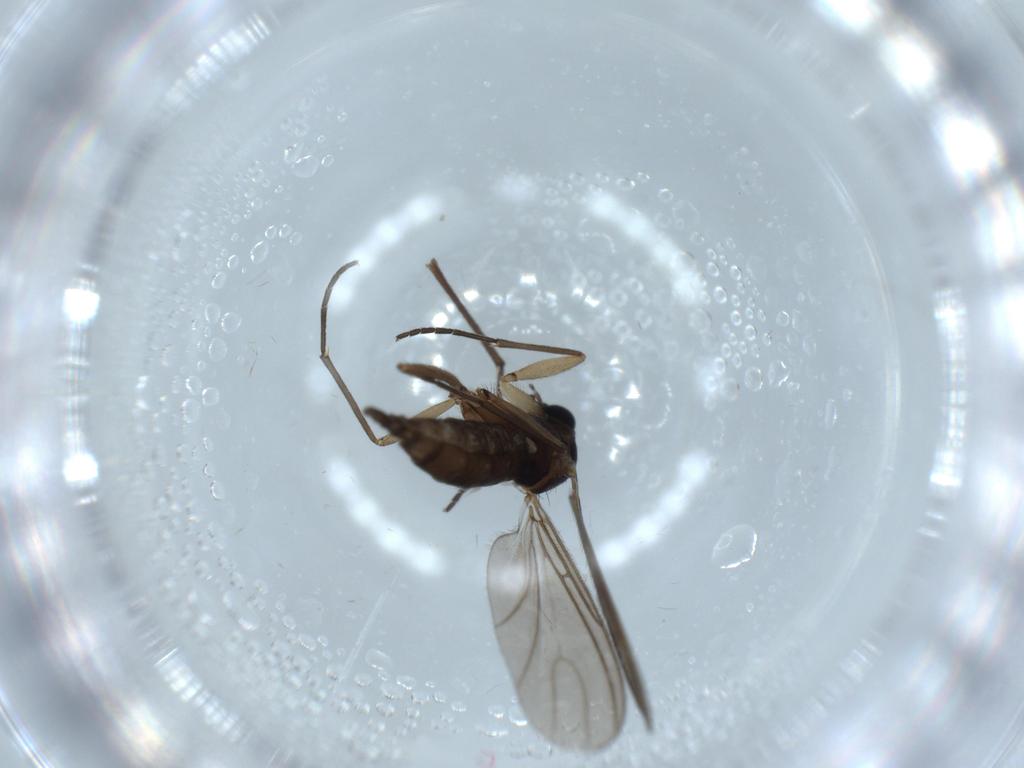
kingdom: Animalia
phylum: Arthropoda
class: Insecta
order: Diptera
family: Sciaridae
